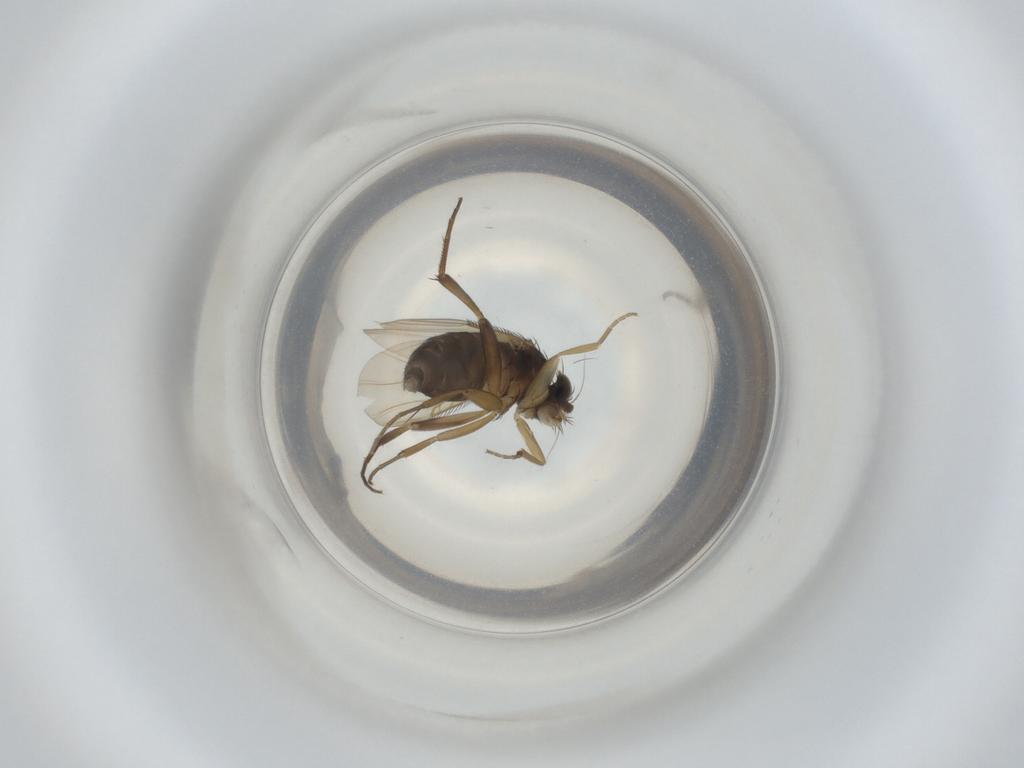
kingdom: Animalia
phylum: Arthropoda
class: Insecta
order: Diptera
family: Phoridae
